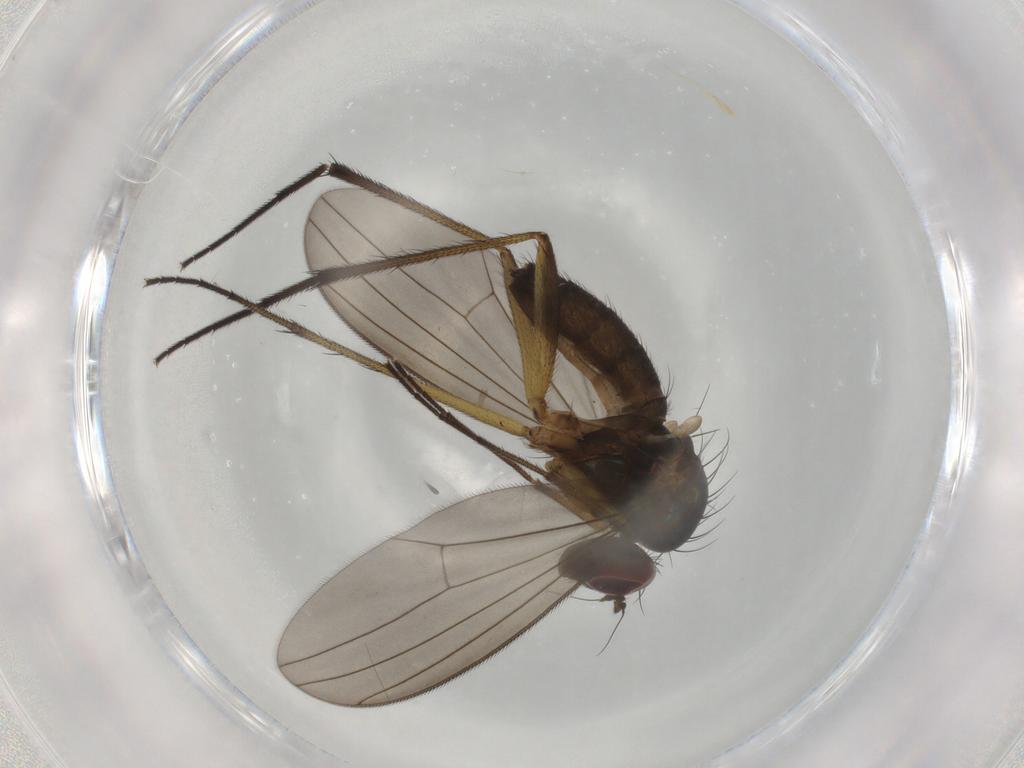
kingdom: Animalia
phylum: Arthropoda
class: Insecta
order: Diptera
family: Dolichopodidae
